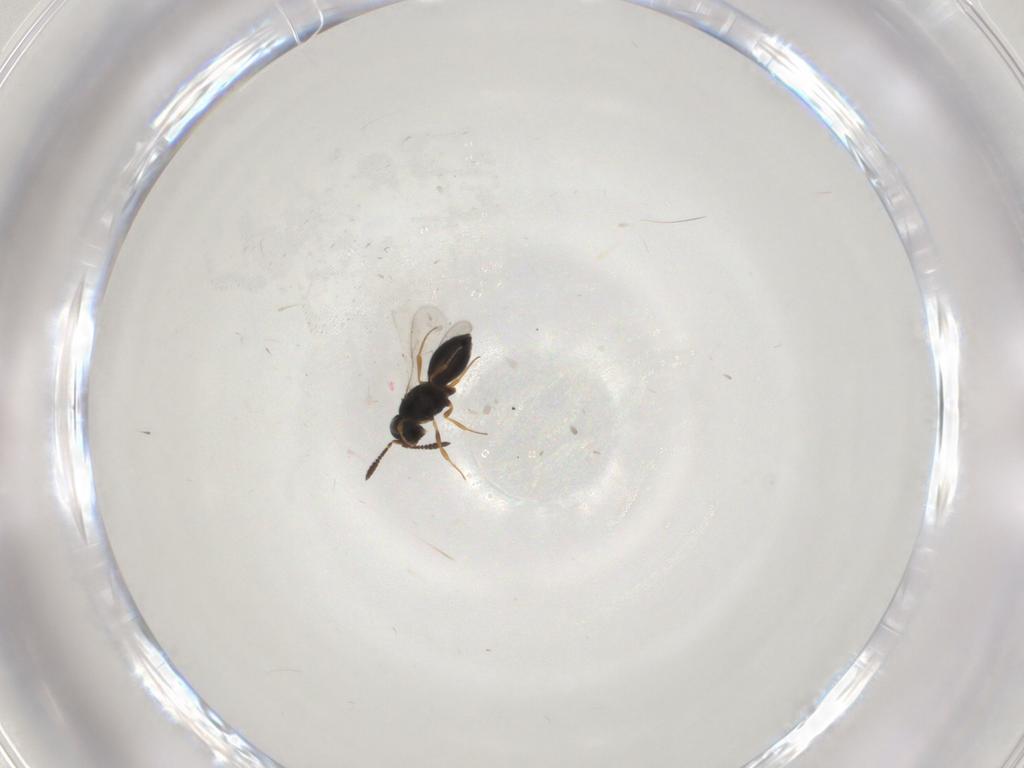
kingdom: Animalia
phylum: Arthropoda
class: Insecta
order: Hymenoptera
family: Scelionidae
